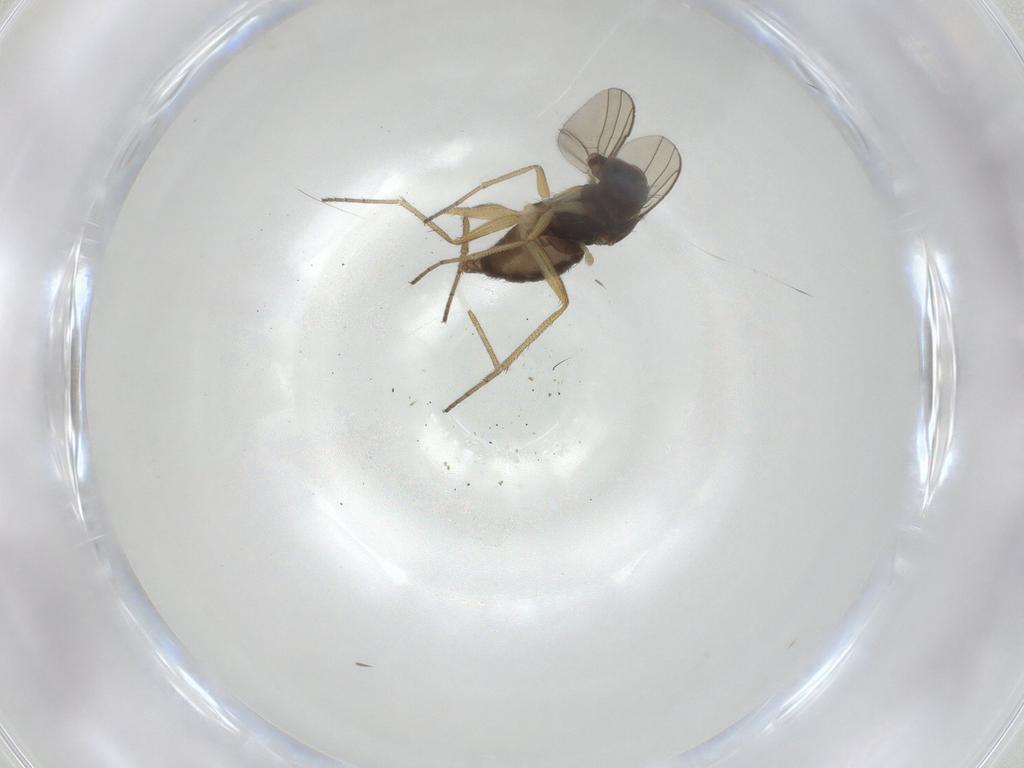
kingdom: Animalia
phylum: Arthropoda
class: Insecta
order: Diptera
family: Dolichopodidae
